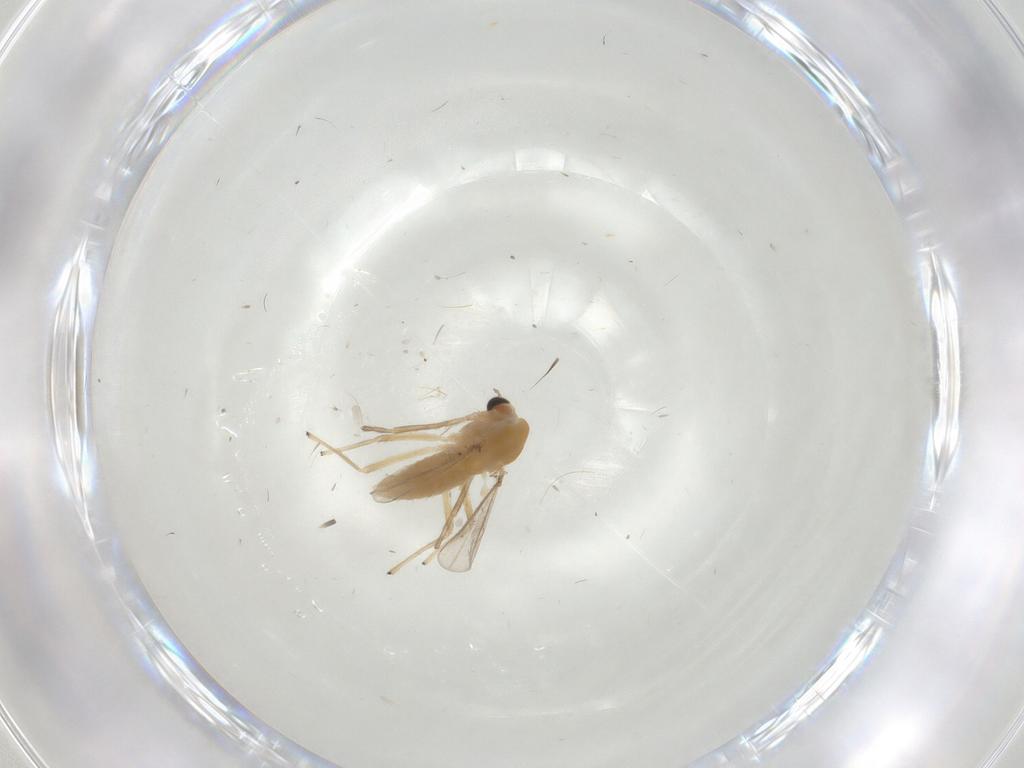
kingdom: Animalia
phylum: Arthropoda
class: Insecta
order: Diptera
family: Chironomidae
